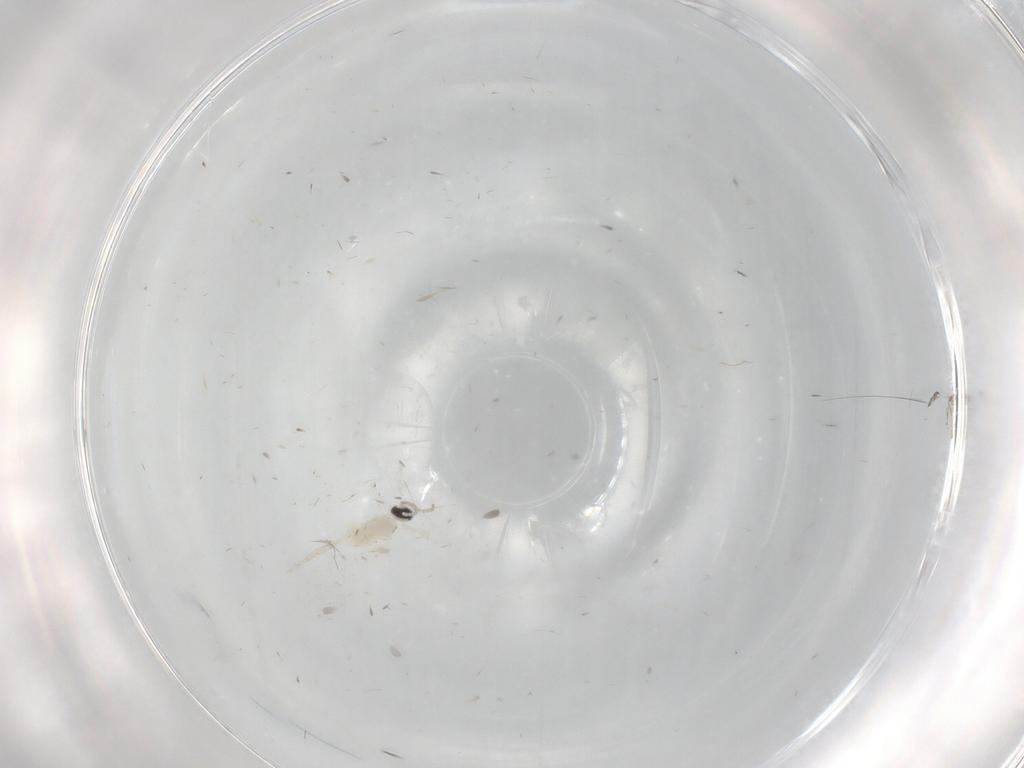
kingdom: Animalia
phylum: Arthropoda
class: Insecta
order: Diptera
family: Cecidomyiidae
